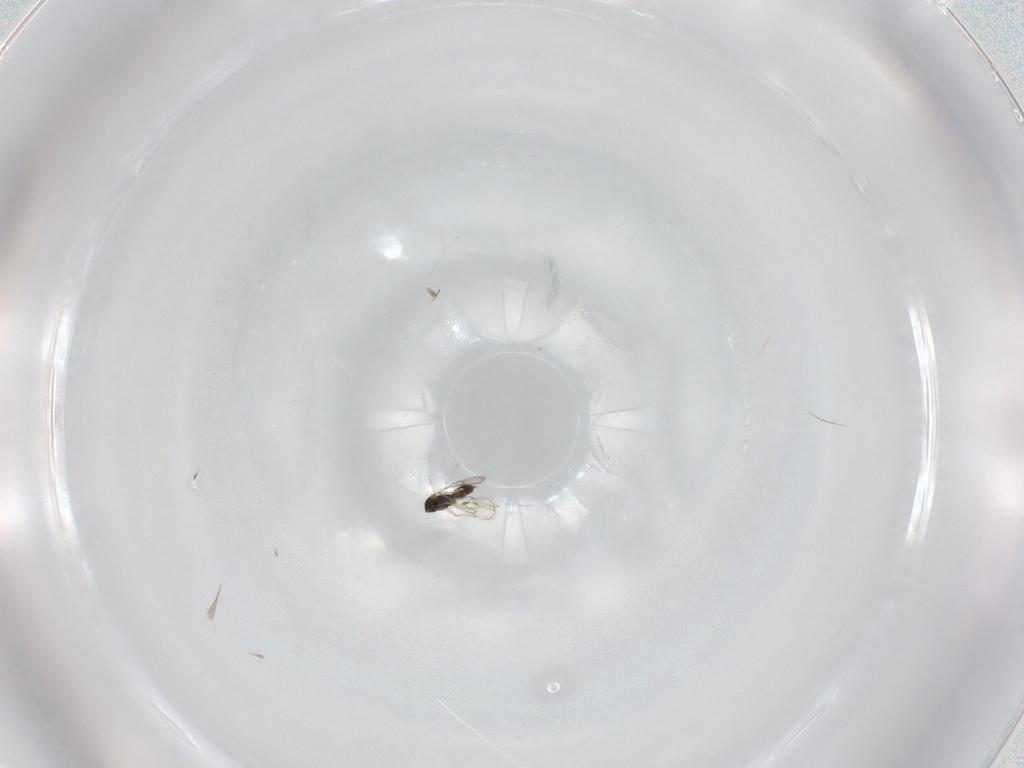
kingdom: Animalia
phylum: Arthropoda
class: Insecta
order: Hymenoptera
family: Eulophidae
